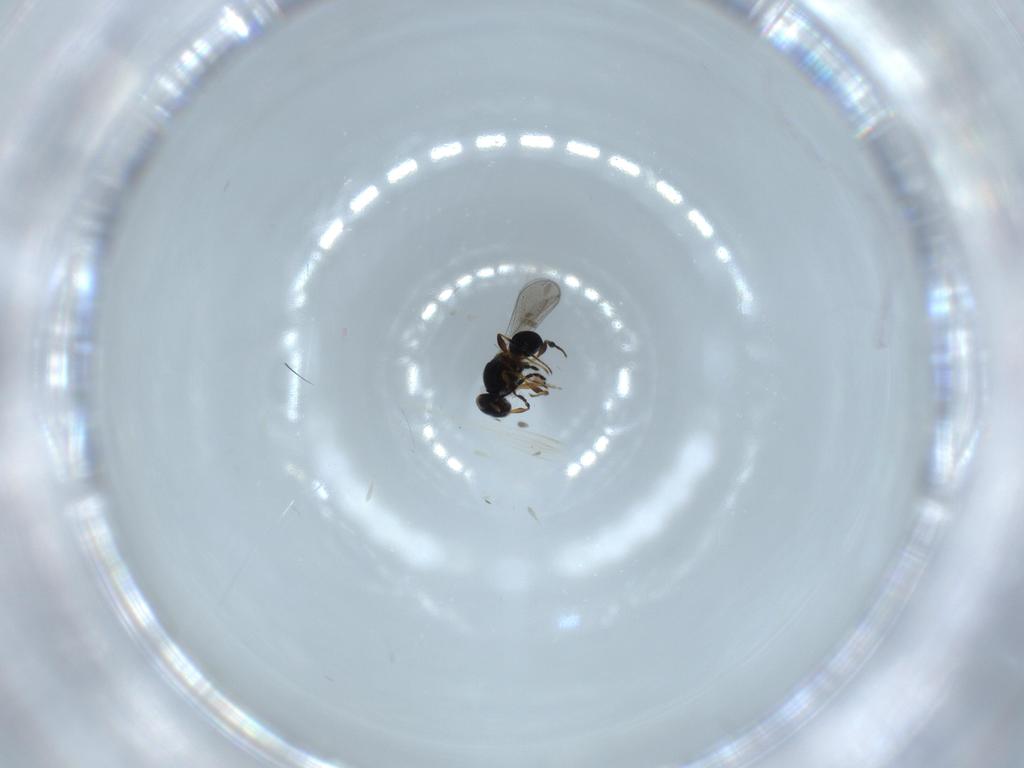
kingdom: Animalia
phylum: Arthropoda
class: Insecta
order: Hymenoptera
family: Platygastridae
